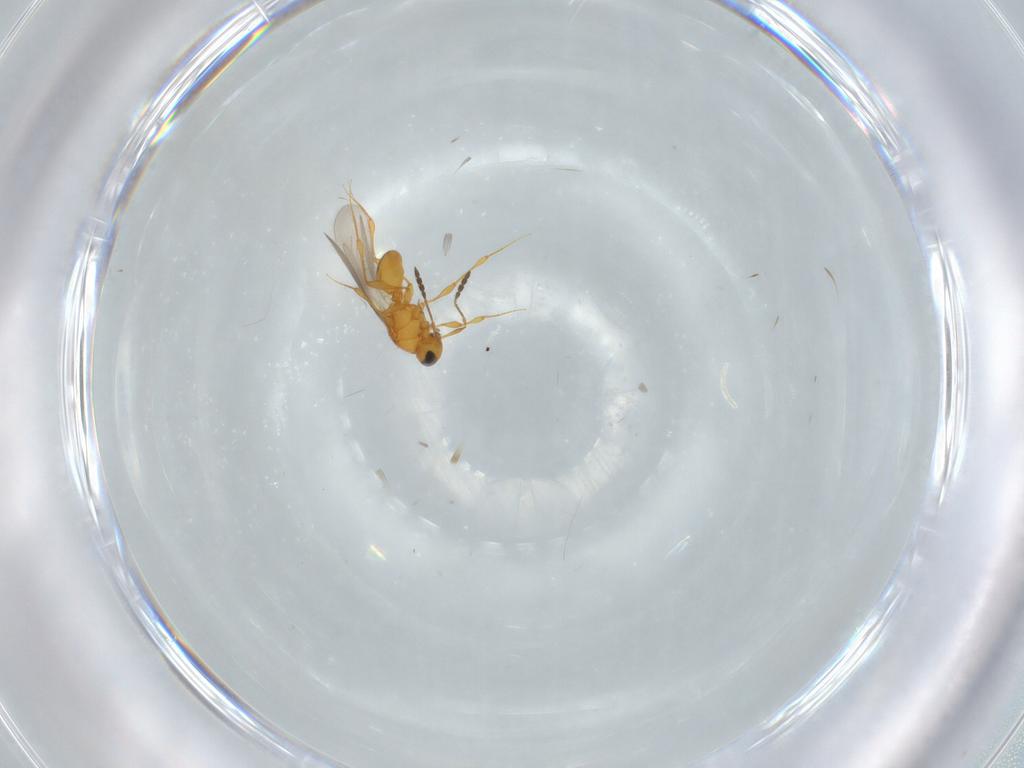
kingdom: Animalia
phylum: Arthropoda
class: Insecta
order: Hymenoptera
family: Platygastridae
